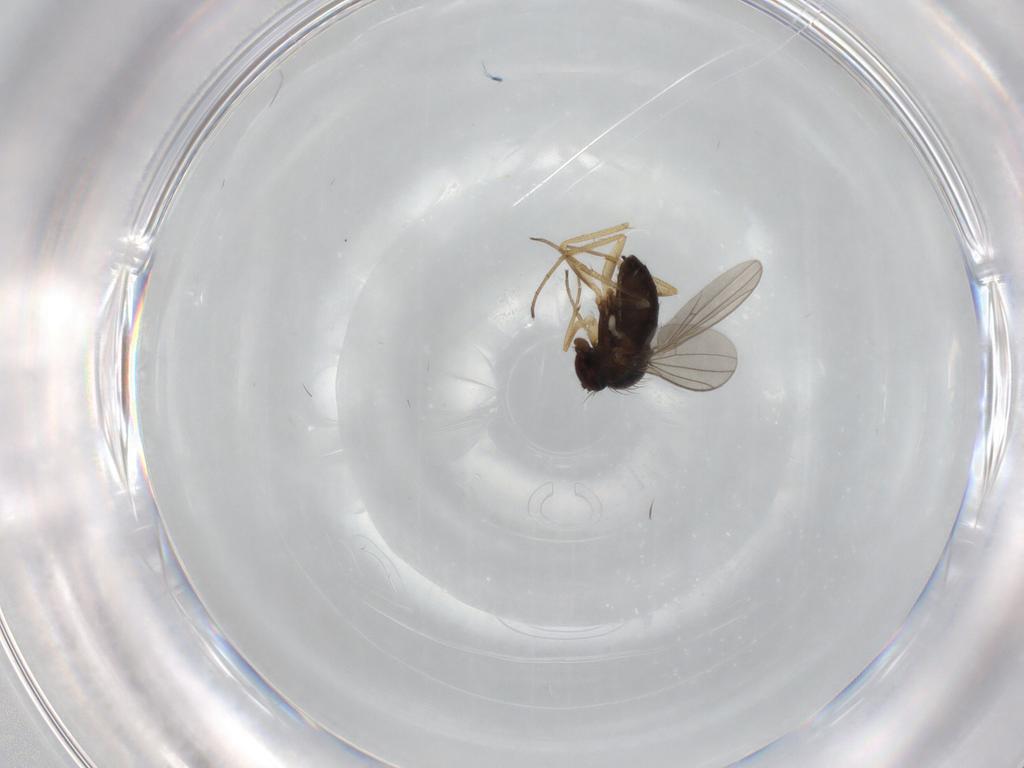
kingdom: Animalia
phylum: Arthropoda
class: Insecta
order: Diptera
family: Dolichopodidae
